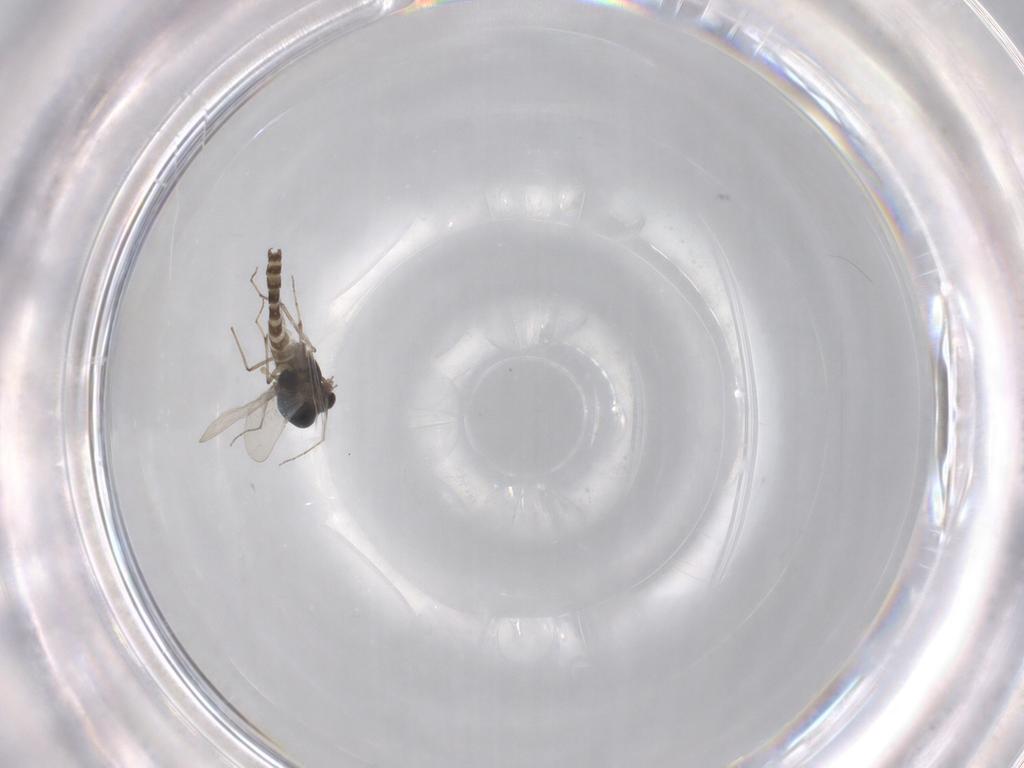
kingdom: Animalia
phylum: Arthropoda
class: Insecta
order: Diptera
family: Chironomidae
